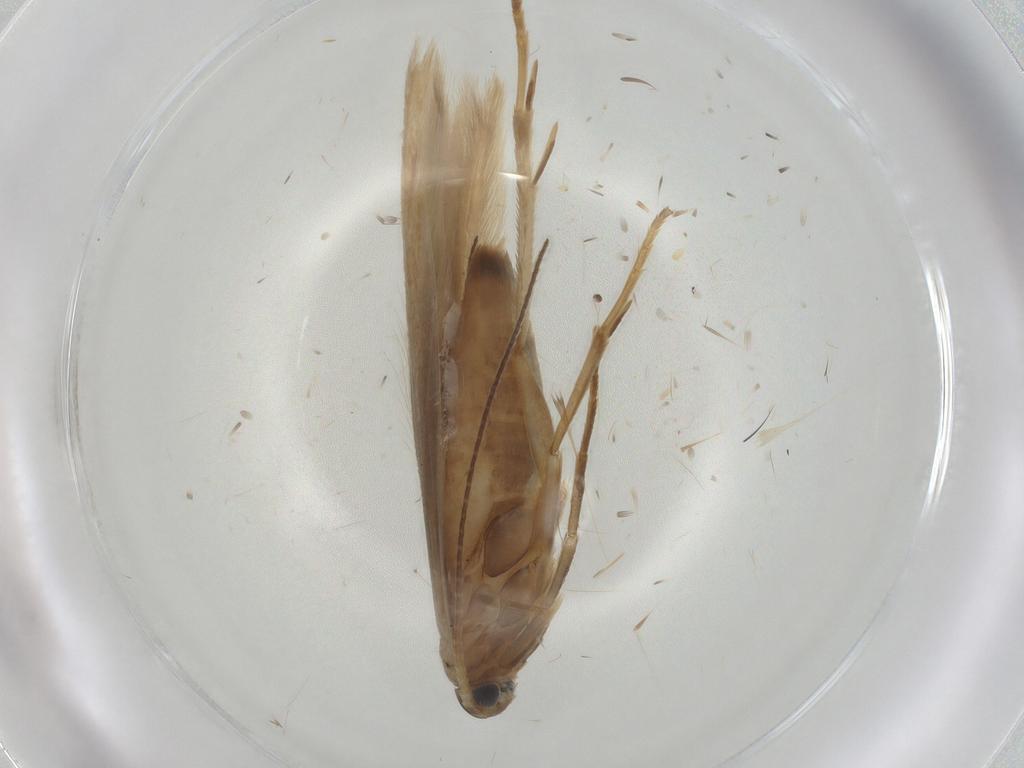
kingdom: Animalia
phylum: Arthropoda
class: Insecta
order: Lepidoptera
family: Coleophoridae
